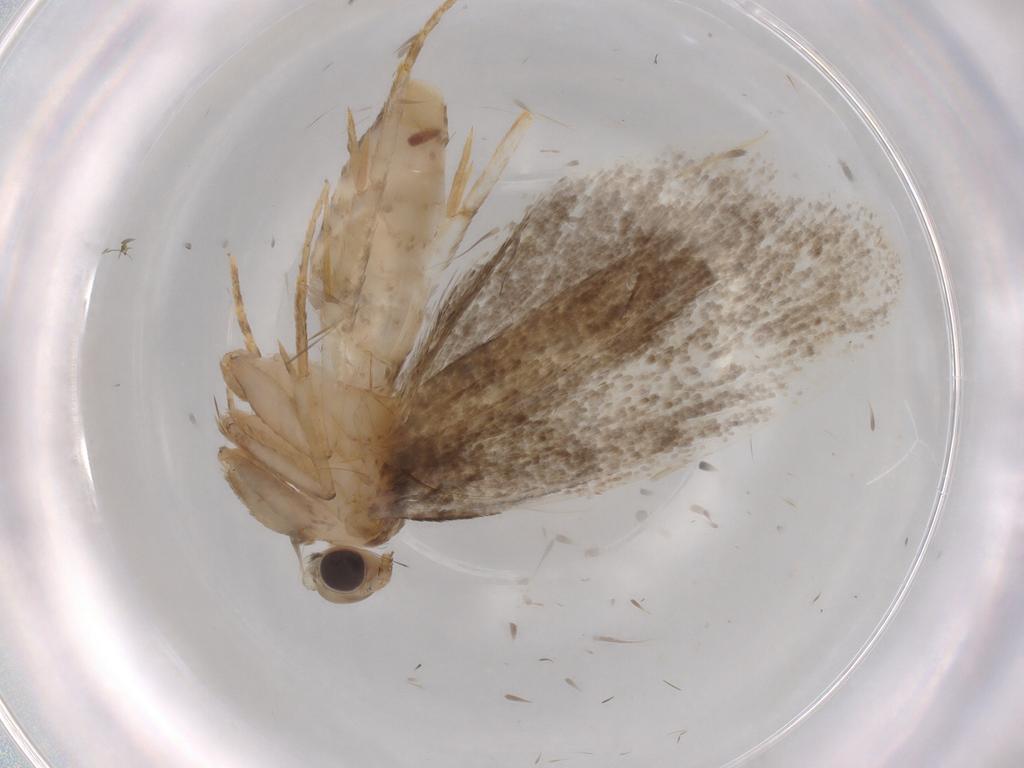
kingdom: Animalia
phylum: Arthropoda
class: Insecta
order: Lepidoptera
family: Tineidae
